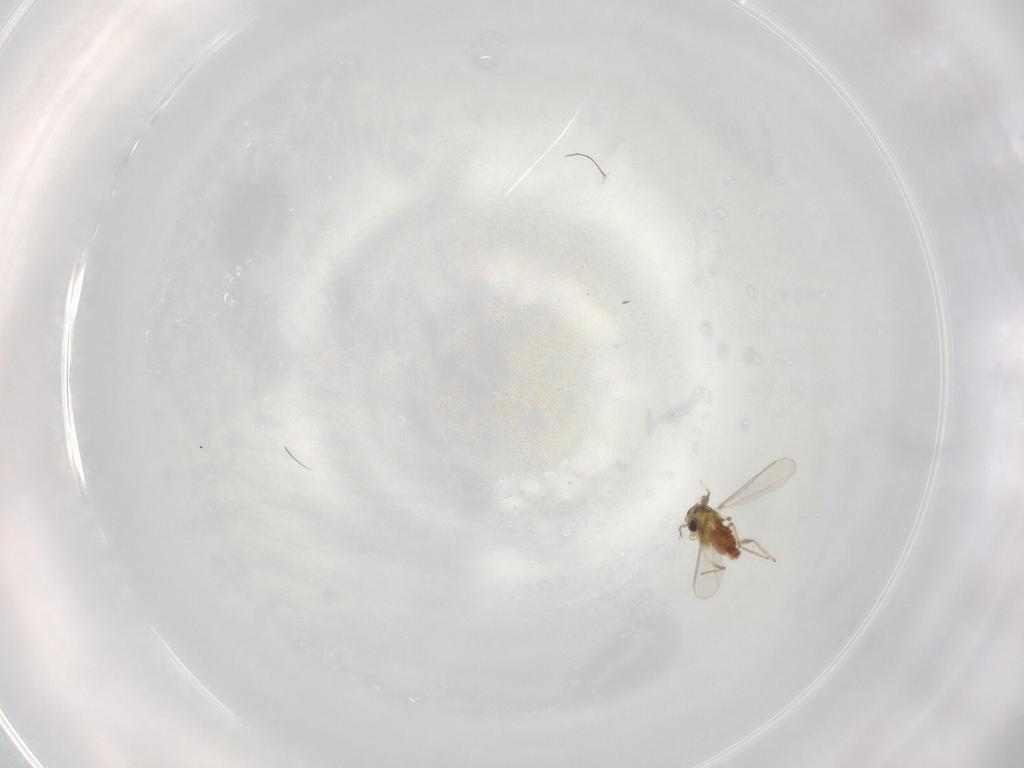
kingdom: Animalia
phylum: Arthropoda
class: Insecta
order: Diptera
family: Chironomidae
